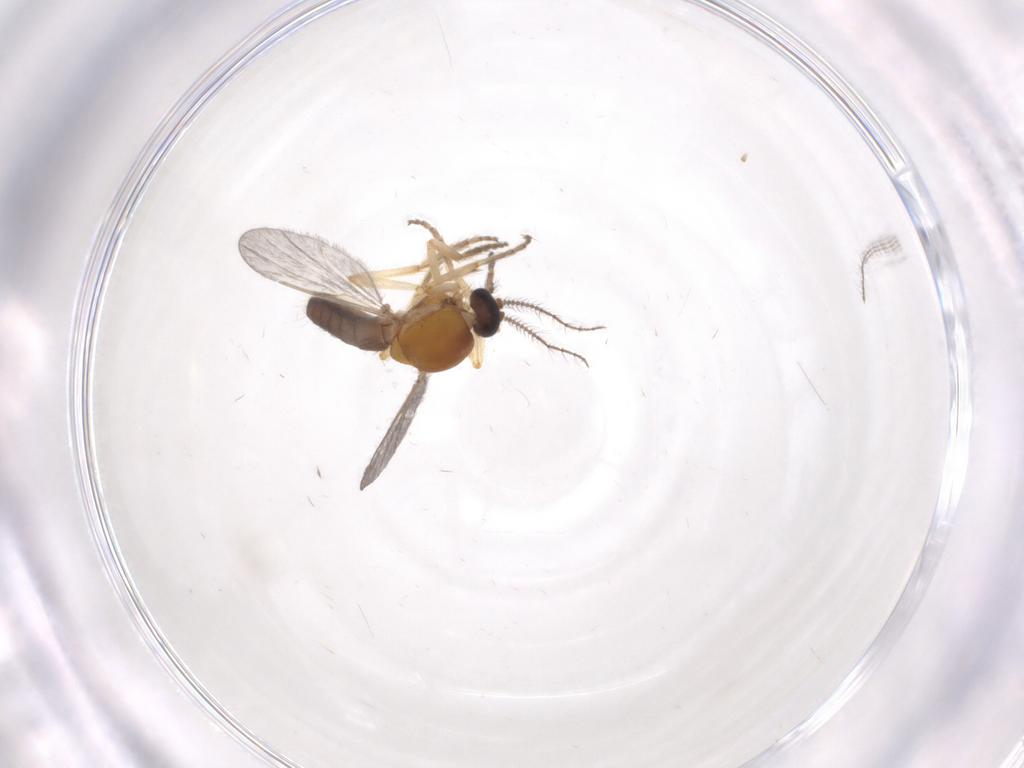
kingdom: Animalia
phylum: Arthropoda
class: Insecta
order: Diptera
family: Ceratopogonidae
